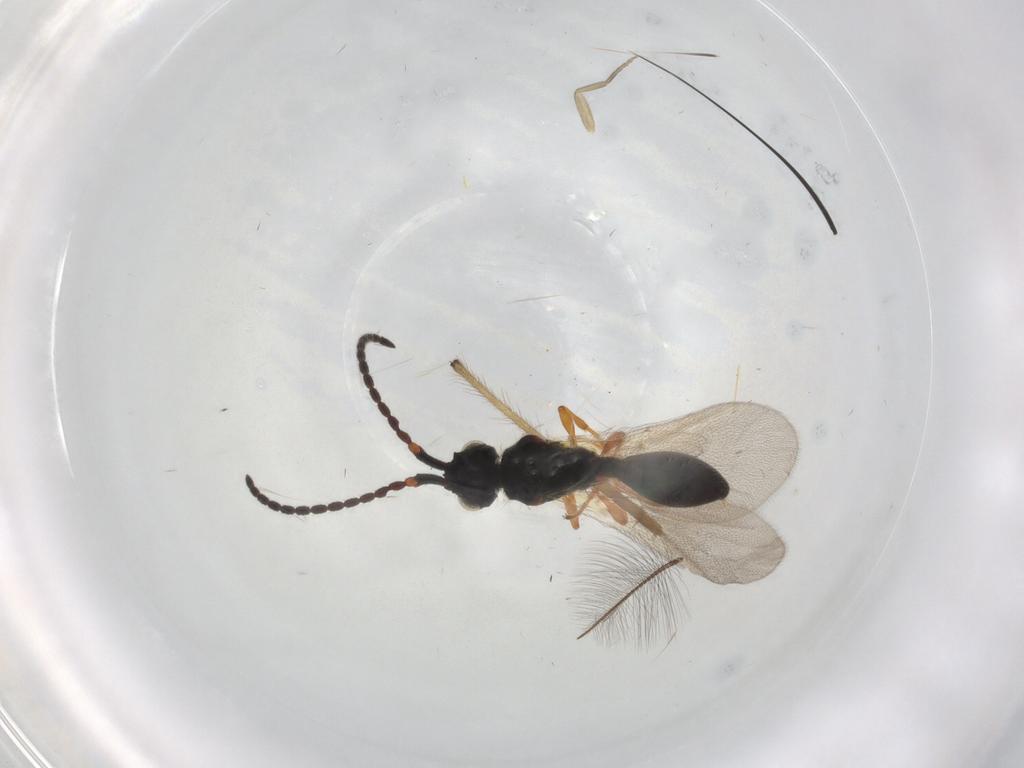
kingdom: Animalia
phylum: Arthropoda
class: Insecta
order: Hymenoptera
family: Diapriidae
